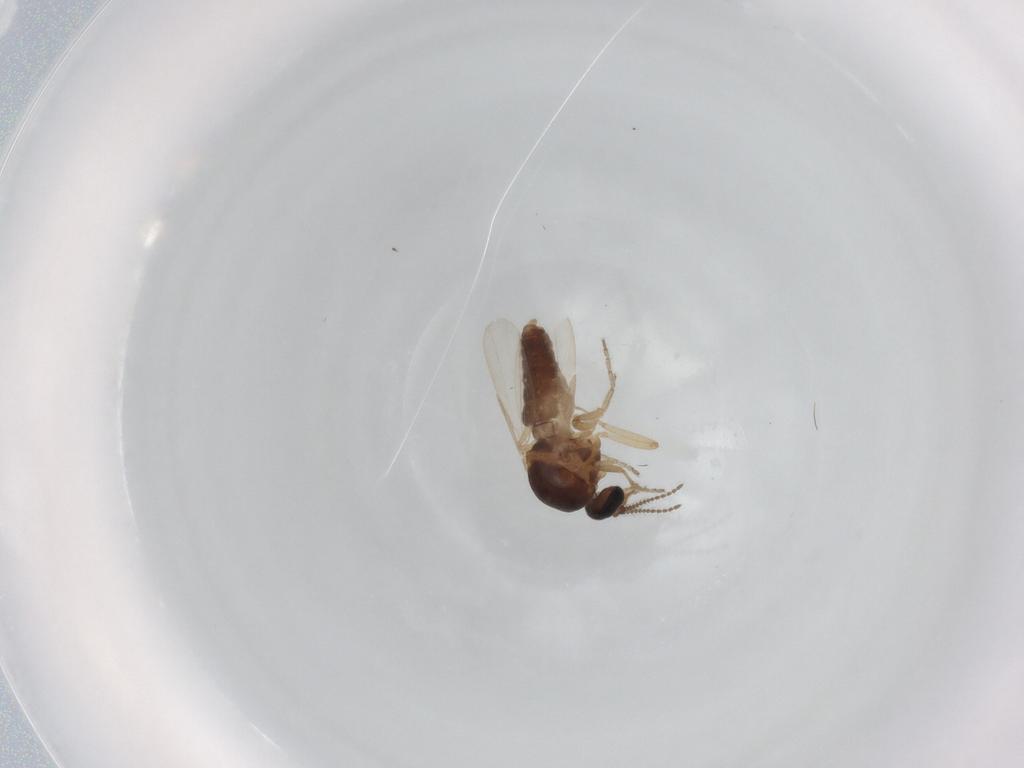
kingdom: Animalia
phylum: Arthropoda
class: Insecta
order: Diptera
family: Ceratopogonidae
